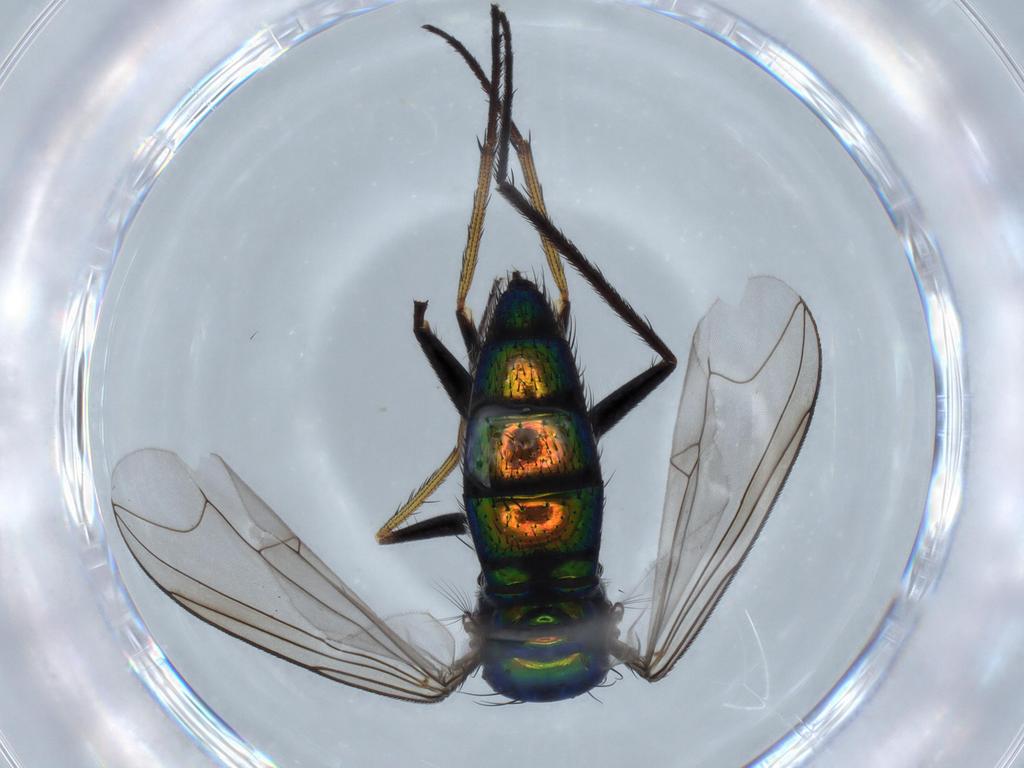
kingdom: Animalia
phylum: Arthropoda
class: Insecta
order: Diptera
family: Dolichopodidae
